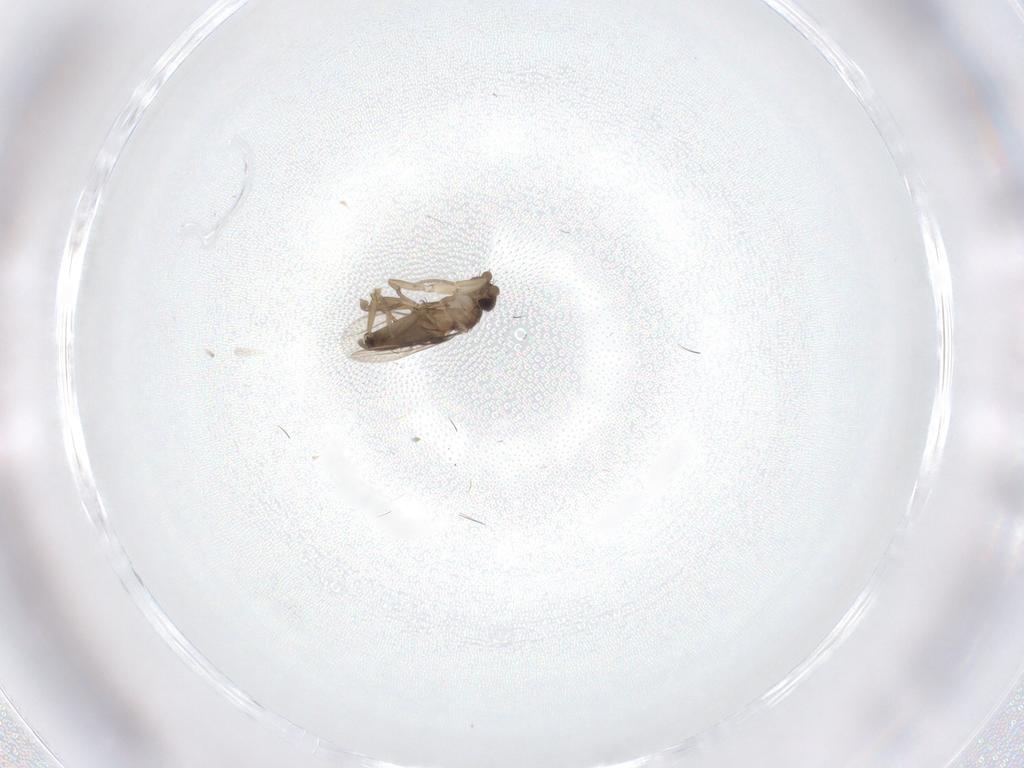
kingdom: Animalia
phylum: Arthropoda
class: Insecta
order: Diptera
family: Phoridae
